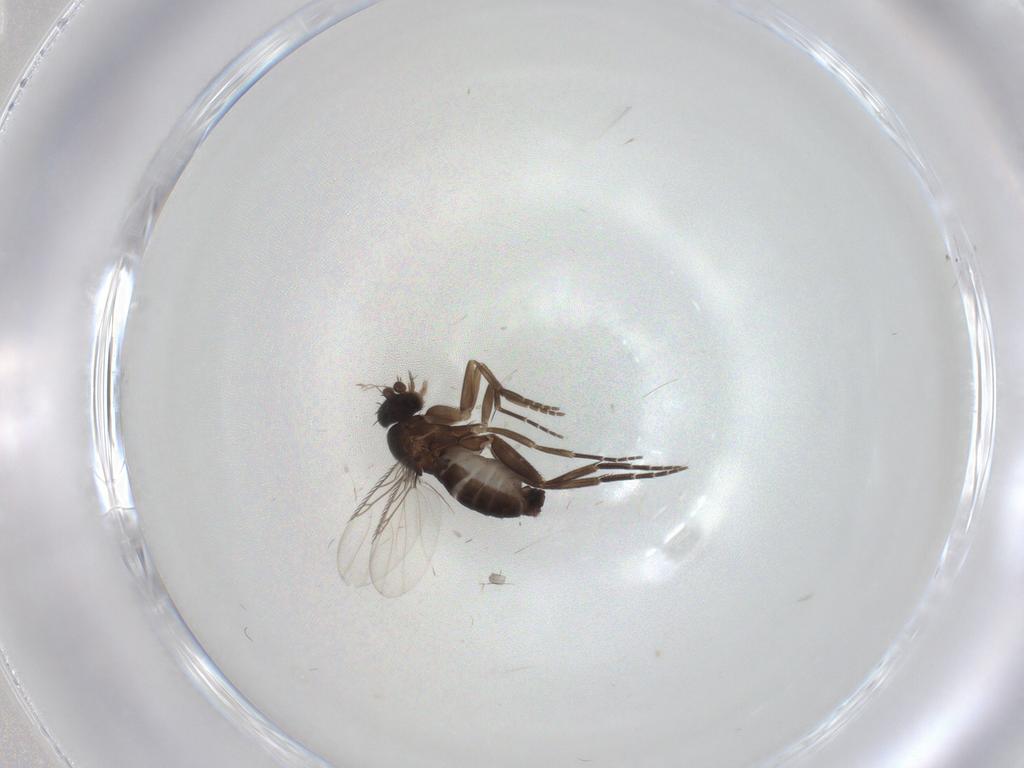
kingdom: Animalia
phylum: Arthropoda
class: Insecta
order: Diptera
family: Phoridae
